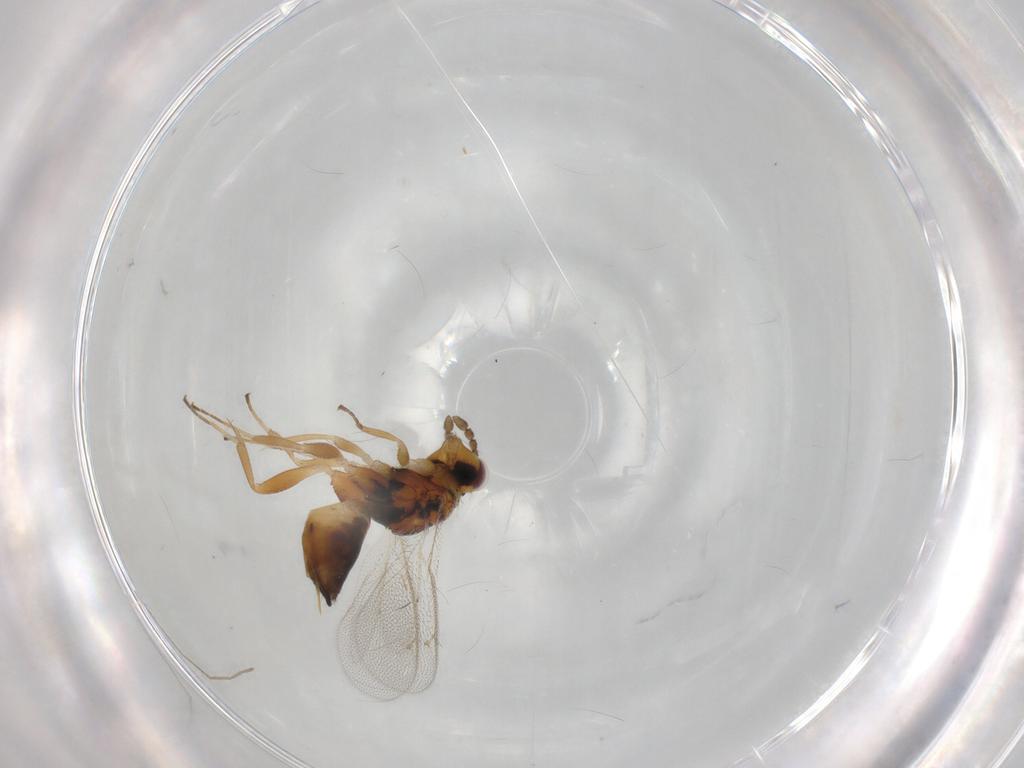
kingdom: Animalia
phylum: Arthropoda
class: Insecta
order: Hymenoptera
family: Eulophidae
